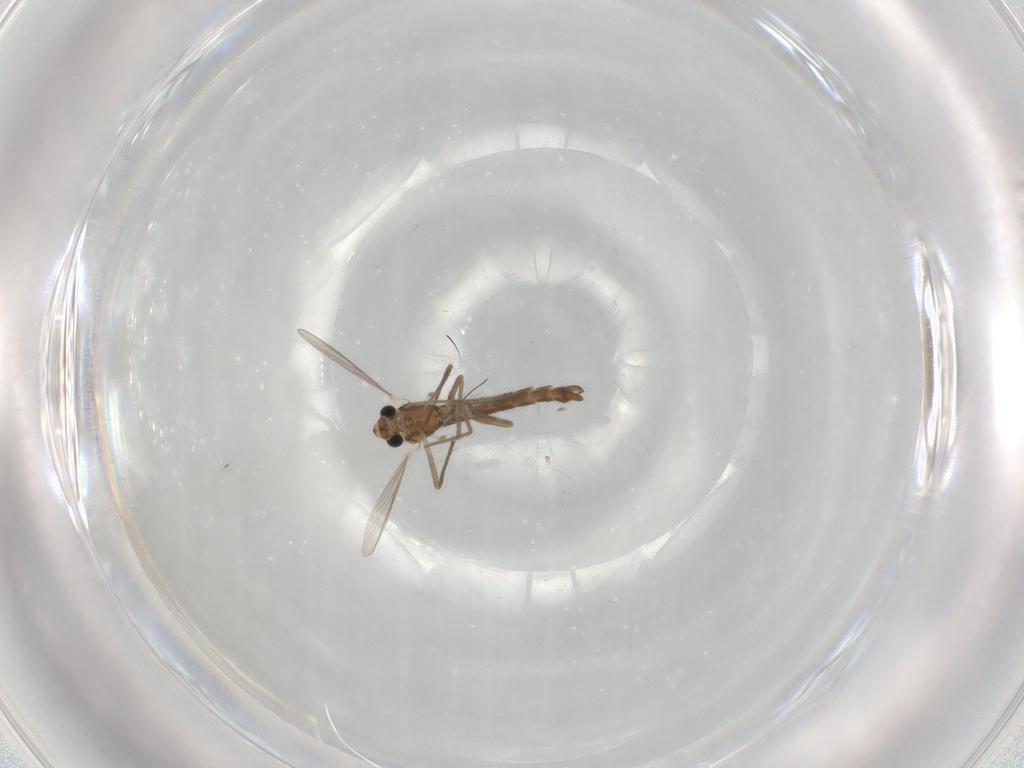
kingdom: Animalia
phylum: Arthropoda
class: Insecta
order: Diptera
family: Chironomidae
